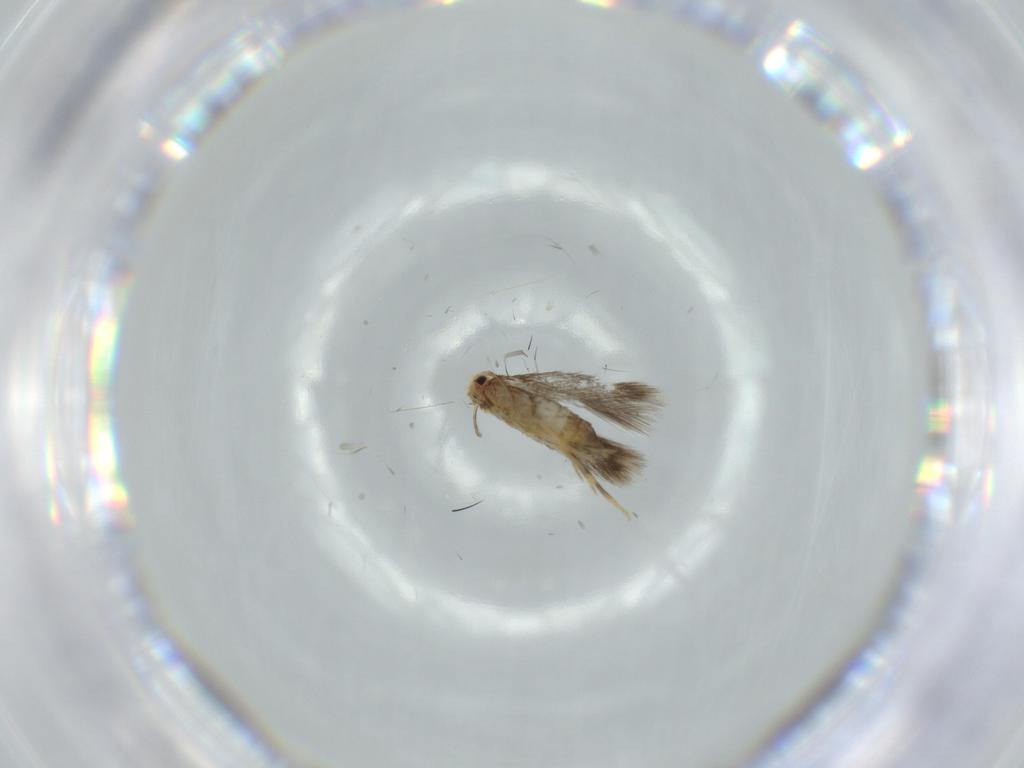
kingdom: Animalia
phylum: Arthropoda
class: Insecta
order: Lepidoptera
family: Nepticulidae
